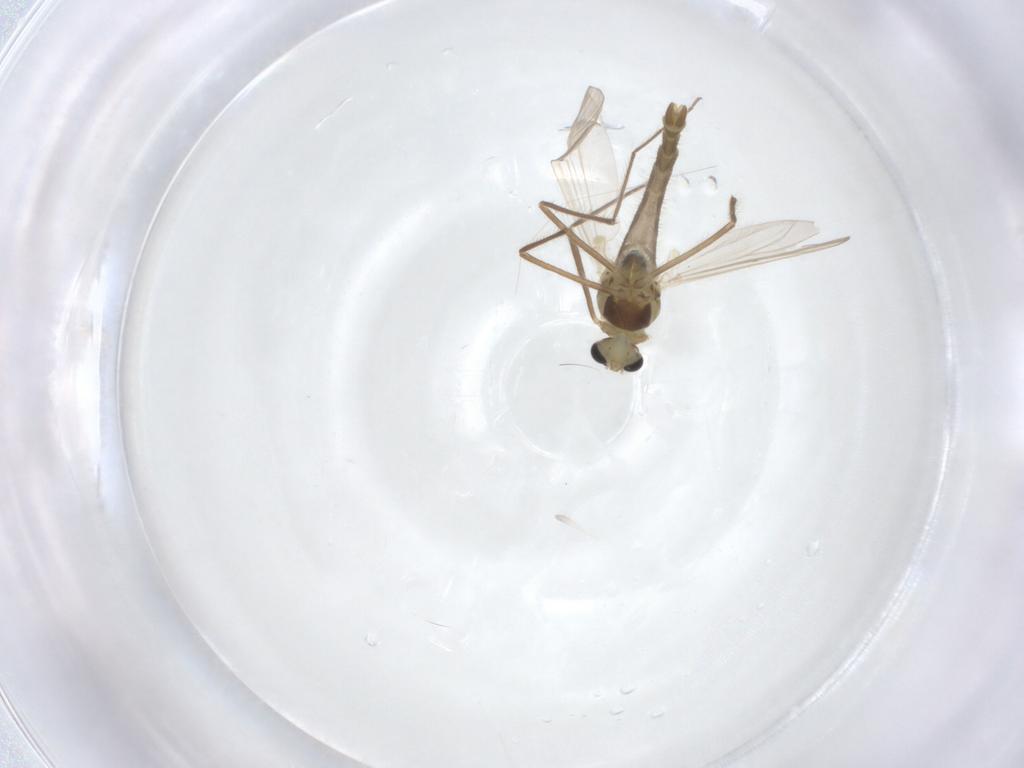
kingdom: Animalia
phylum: Arthropoda
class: Insecta
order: Diptera
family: Chironomidae
